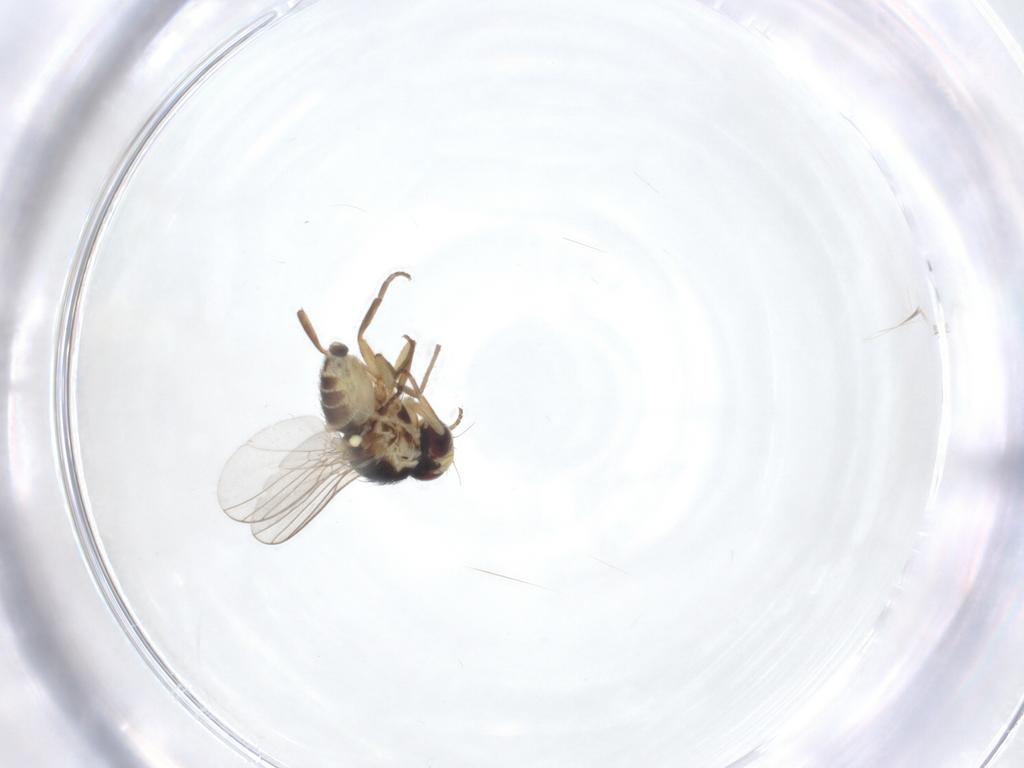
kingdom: Animalia
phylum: Arthropoda
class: Insecta
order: Diptera
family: Agromyzidae
